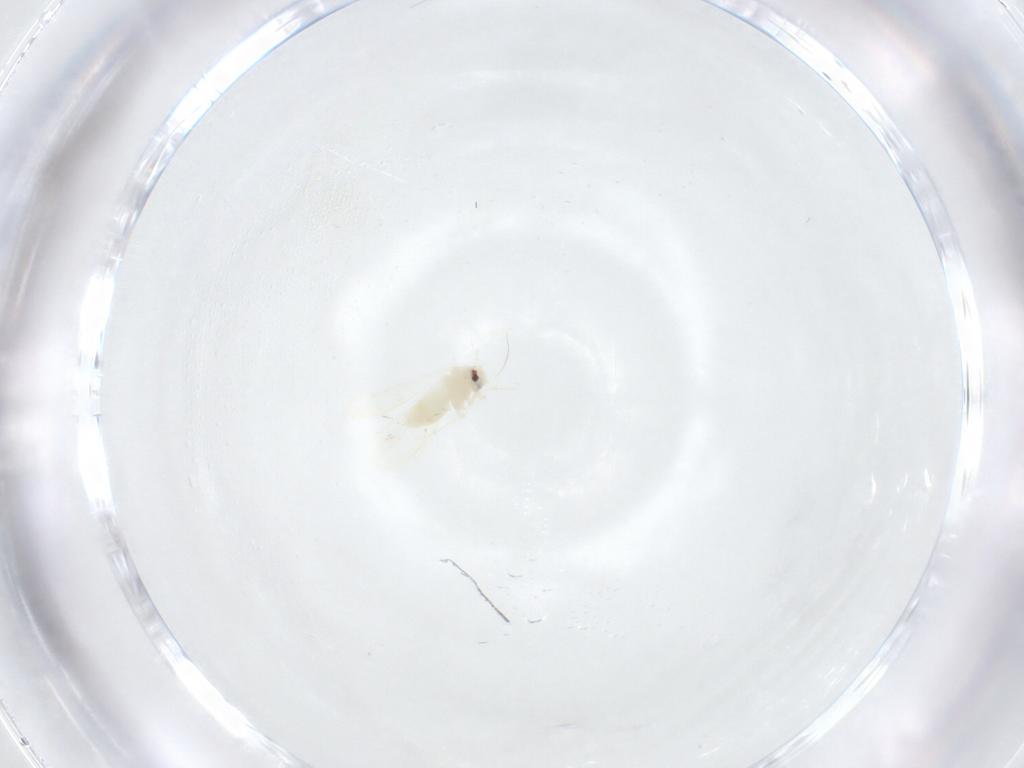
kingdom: Animalia
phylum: Arthropoda
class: Insecta
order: Hemiptera
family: Aleyrodidae
